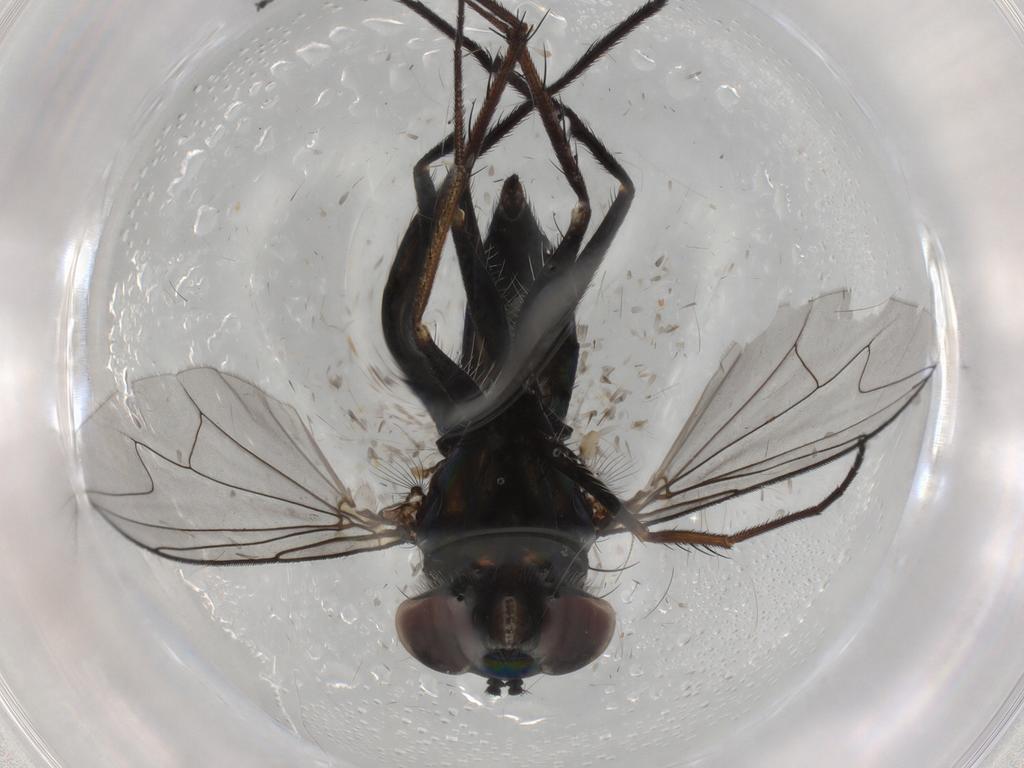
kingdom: Animalia
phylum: Arthropoda
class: Insecta
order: Diptera
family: Dolichopodidae
